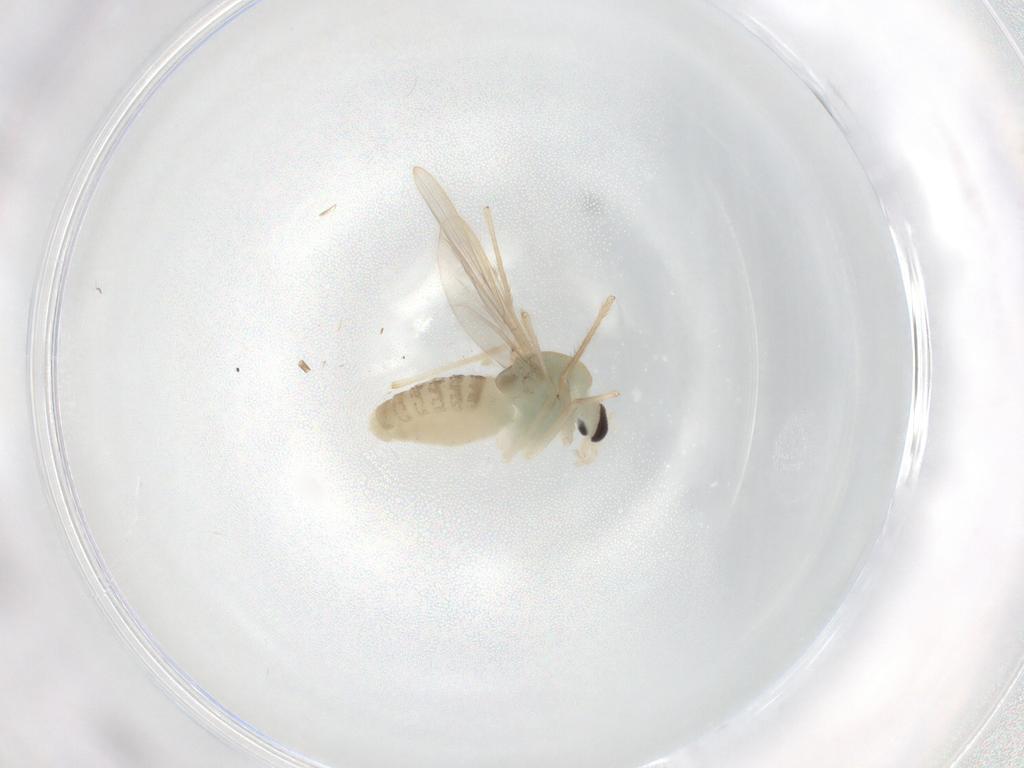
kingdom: Animalia
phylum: Arthropoda
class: Insecta
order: Diptera
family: Chironomidae
